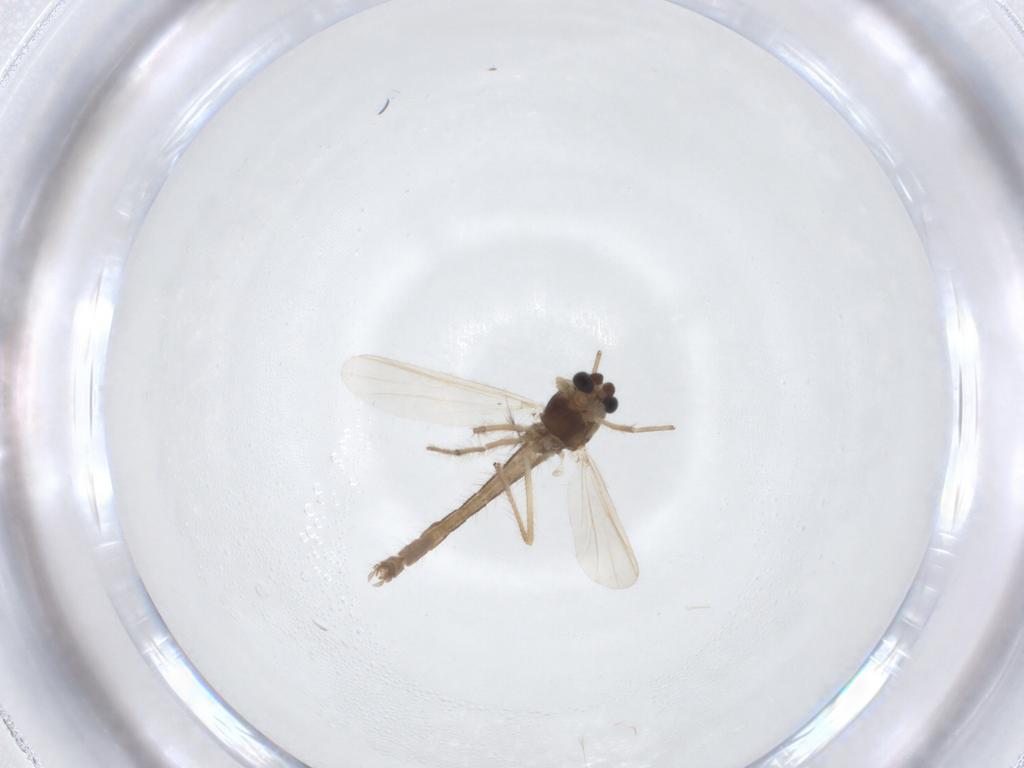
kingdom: Animalia
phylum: Arthropoda
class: Insecta
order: Diptera
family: Chironomidae
